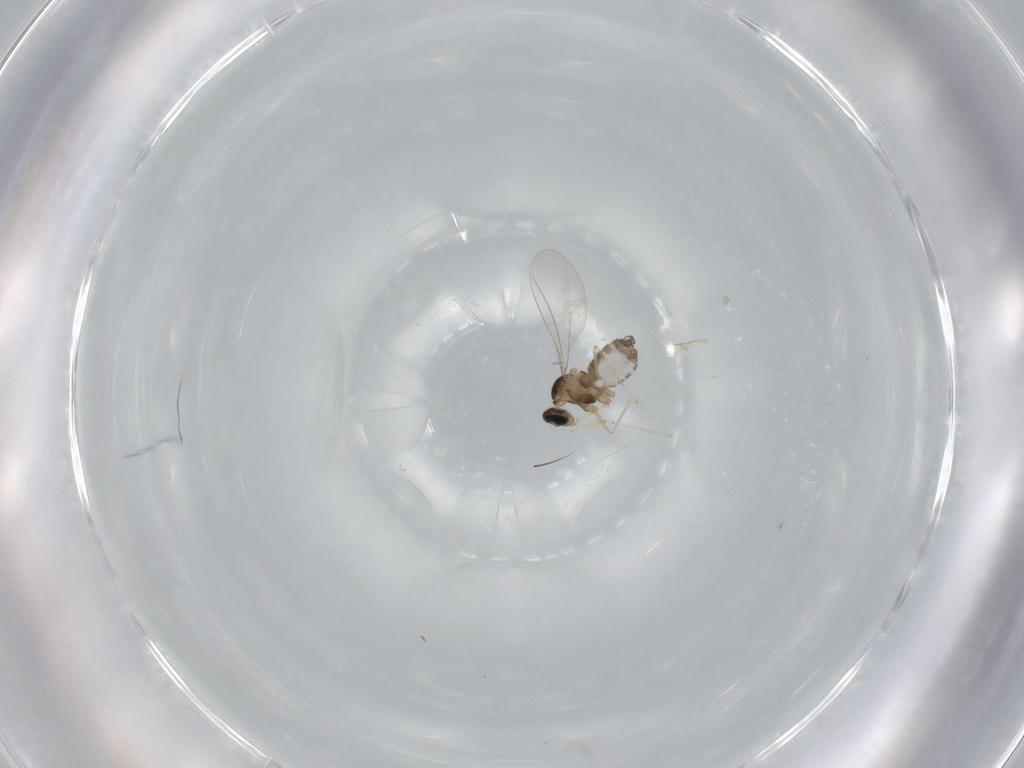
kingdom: Animalia
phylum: Arthropoda
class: Insecta
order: Diptera
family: Cecidomyiidae
